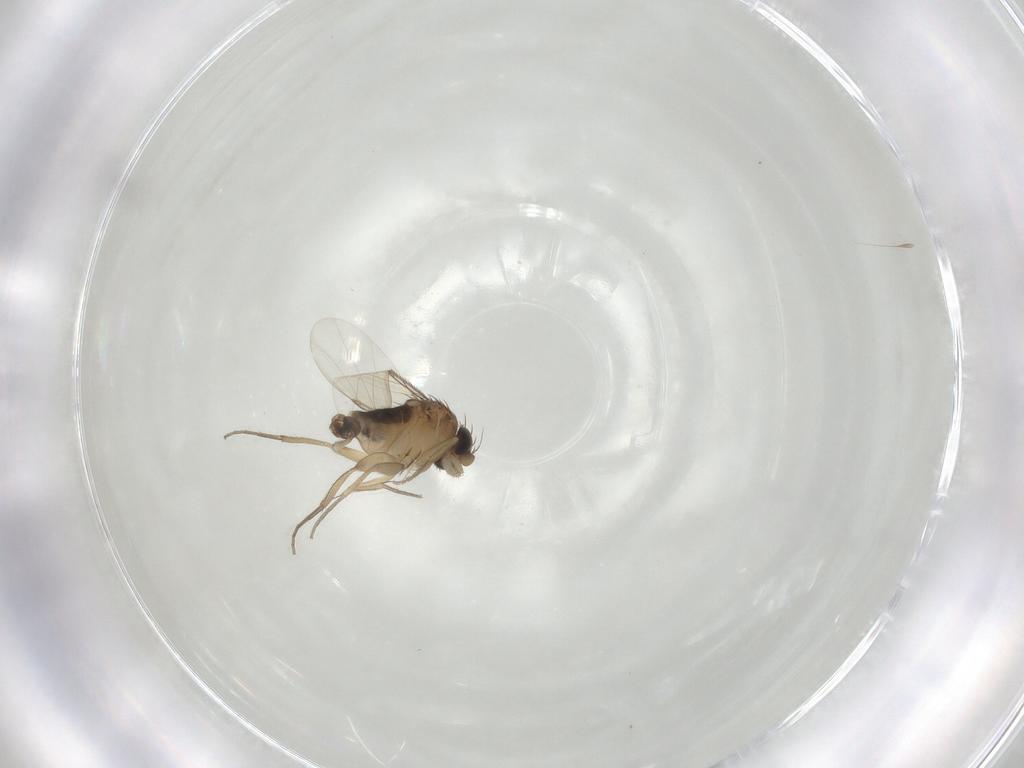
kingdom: Animalia
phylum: Arthropoda
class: Insecta
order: Diptera
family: Phoridae
